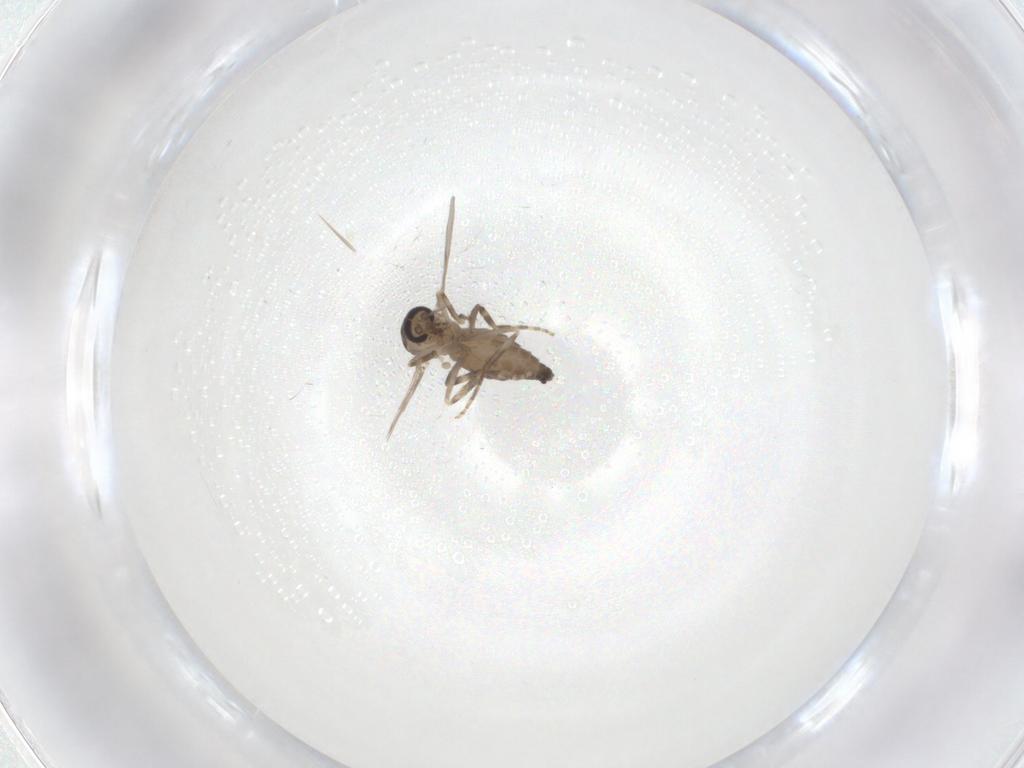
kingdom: Animalia
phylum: Arthropoda
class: Insecta
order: Diptera
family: Ceratopogonidae
